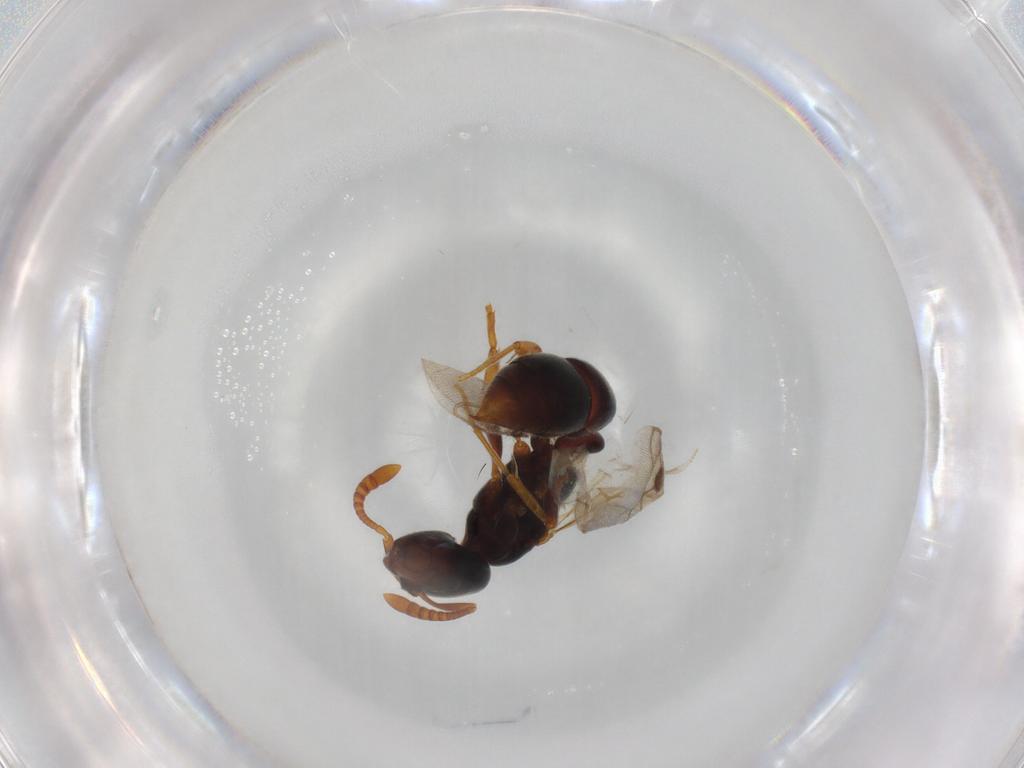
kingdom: Animalia
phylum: Arthropoda
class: Insecta
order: Hymenoptera
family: Formicidae
